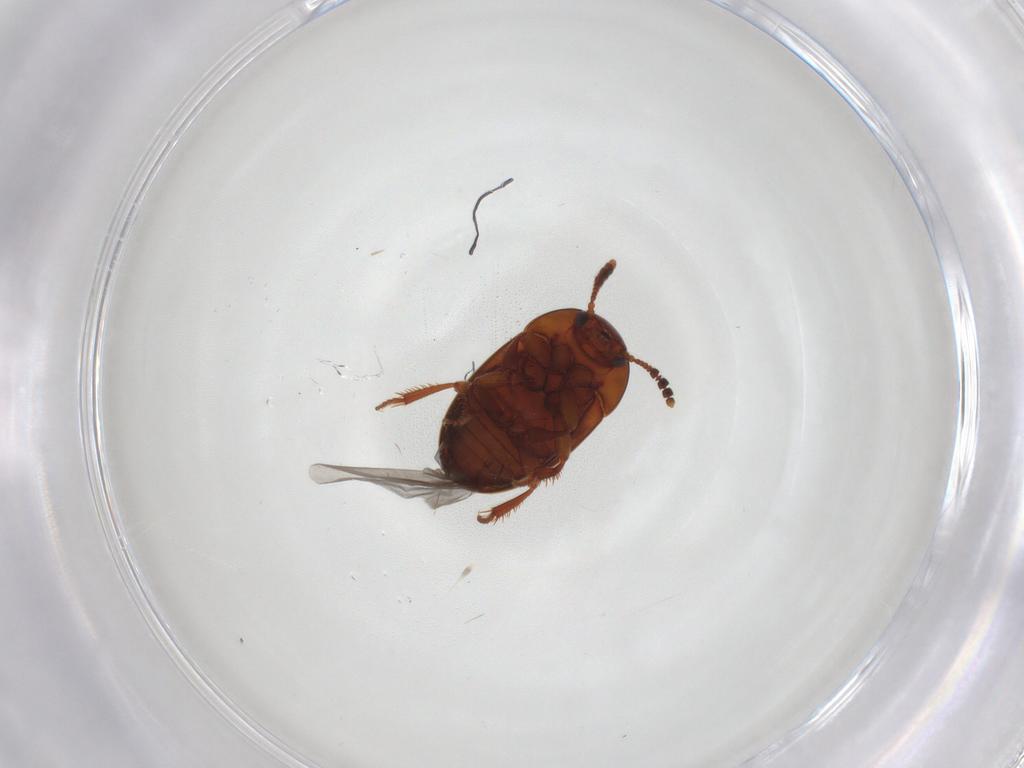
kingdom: Animalia
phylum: Arthropoda
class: Insecta
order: Coleoptera
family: Leiodidae
